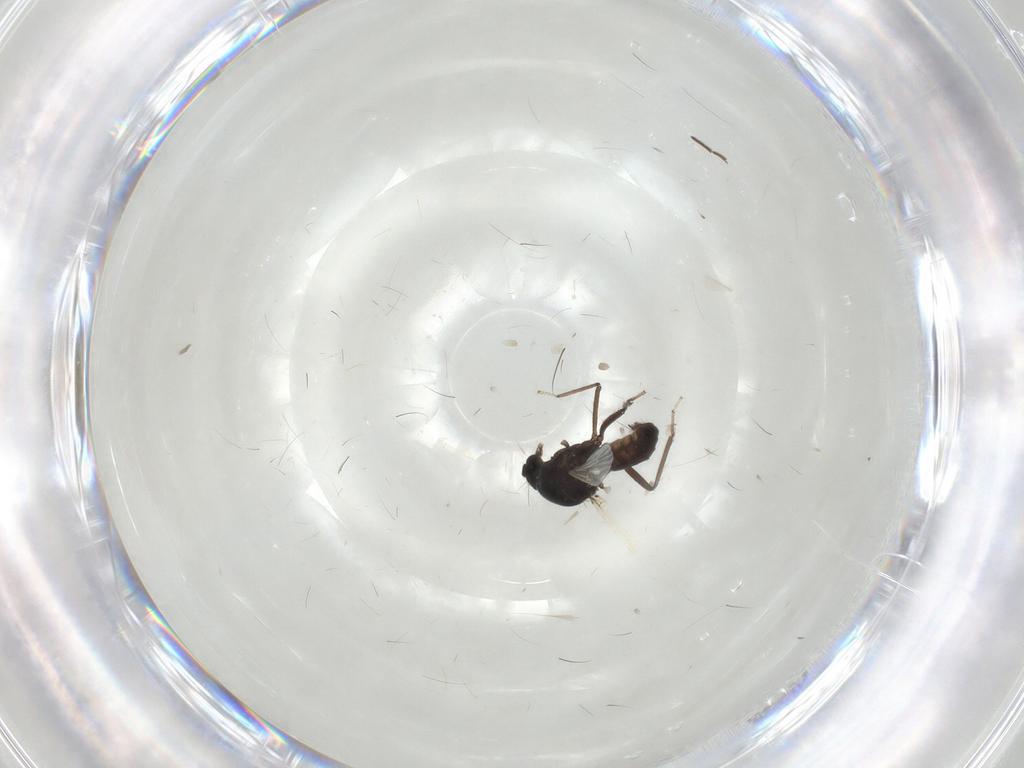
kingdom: Animalia
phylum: Arthropoda
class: Insecta
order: Diptera
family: Ceratopogonidae
